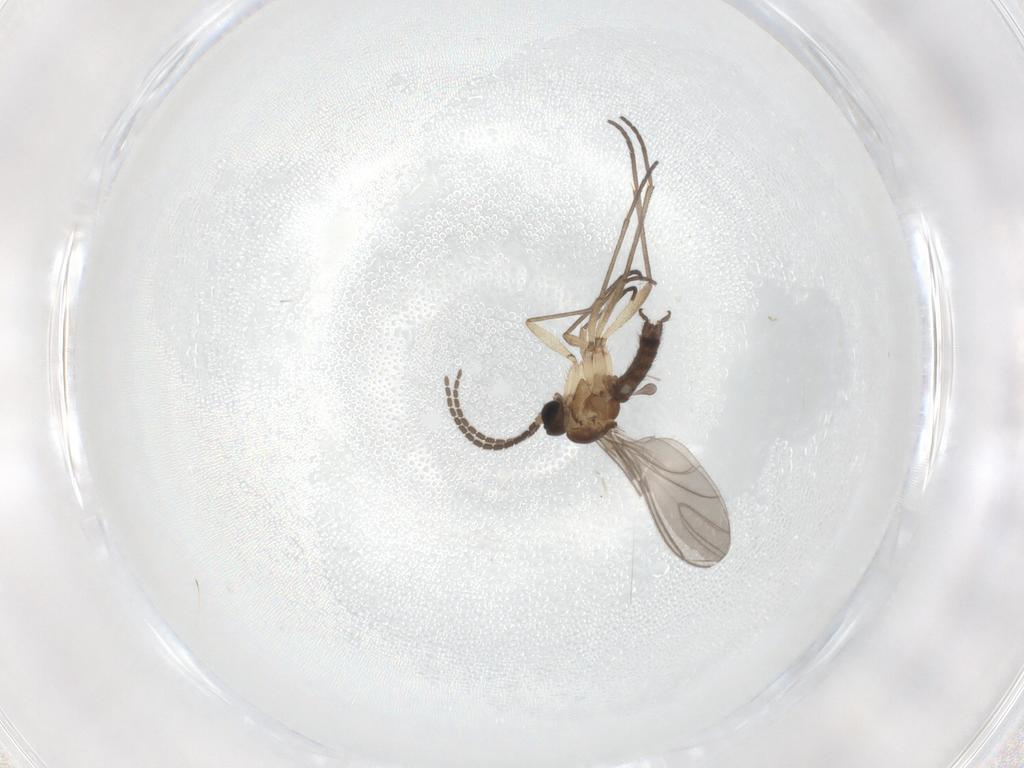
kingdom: Animalia
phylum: Arthropoda
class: Insecta
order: Diptera
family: Sciaridae
